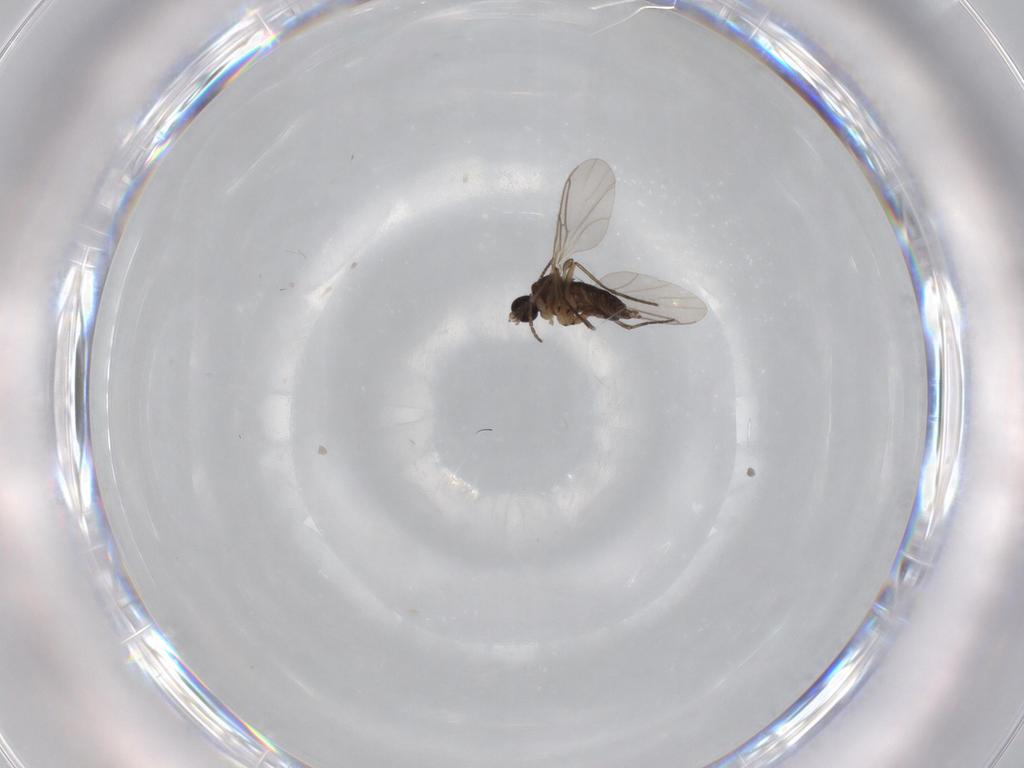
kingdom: Animalia
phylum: Arthropoda
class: Insecta
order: Diptera
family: Sciaridae
